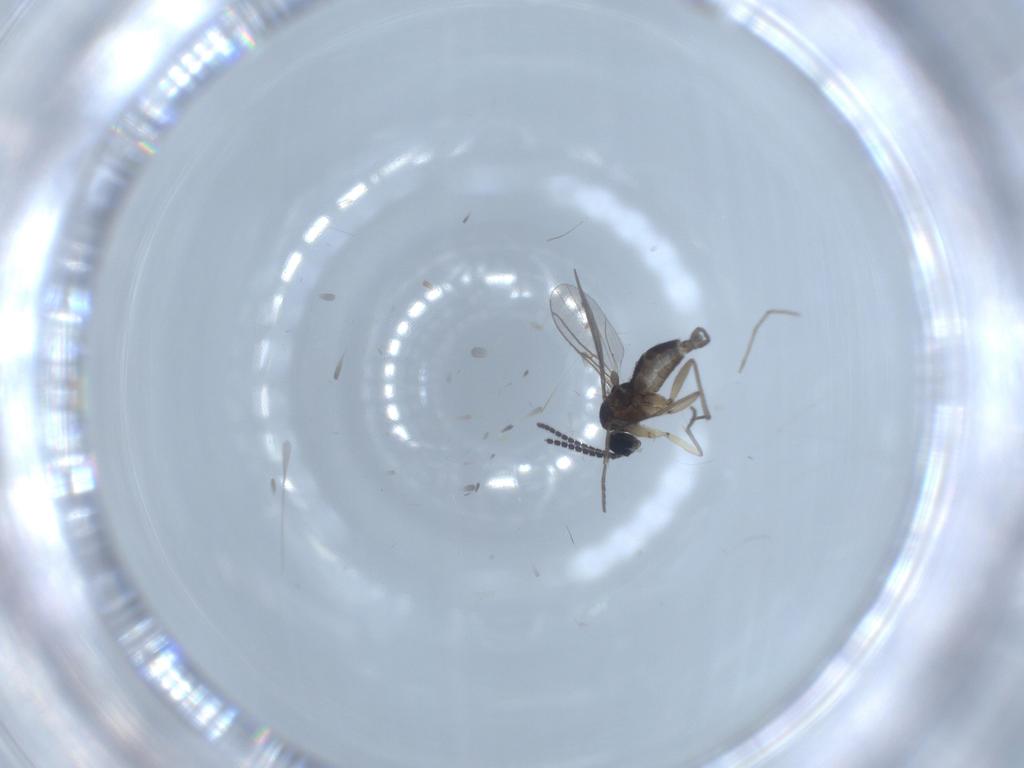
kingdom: Animalia
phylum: Arthropoda
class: Insecta
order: Diptera
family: Sciaridae
